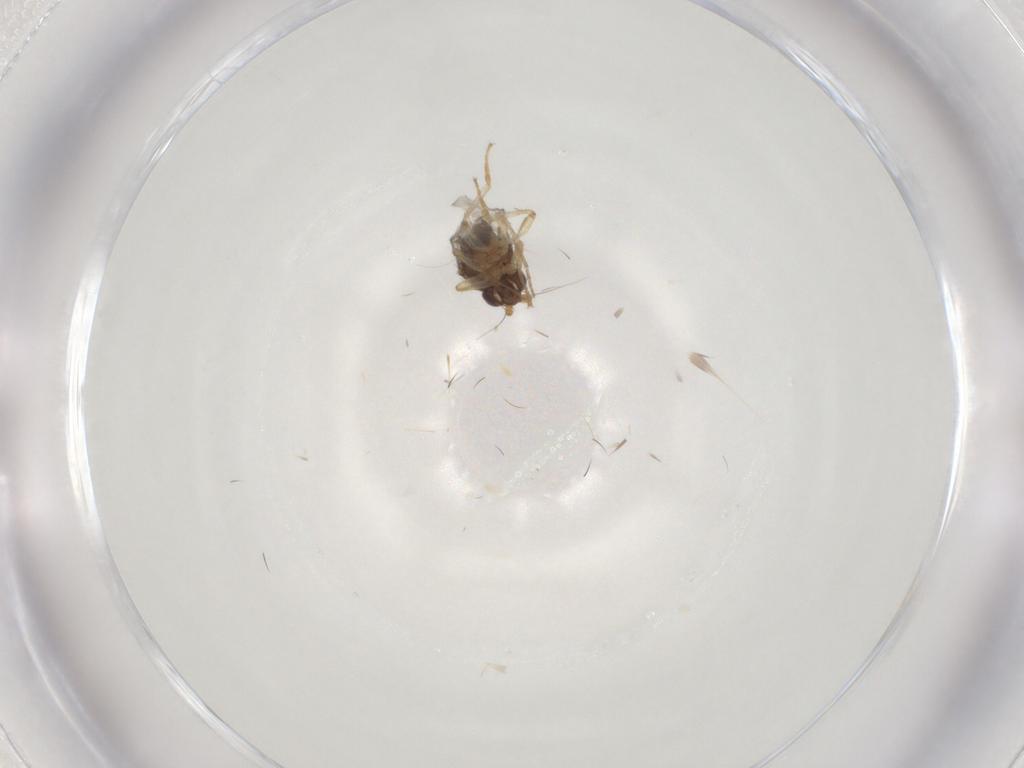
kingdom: Animalia
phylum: Arthropoda
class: Insecta
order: Diptera
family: Sphaeroceridae
